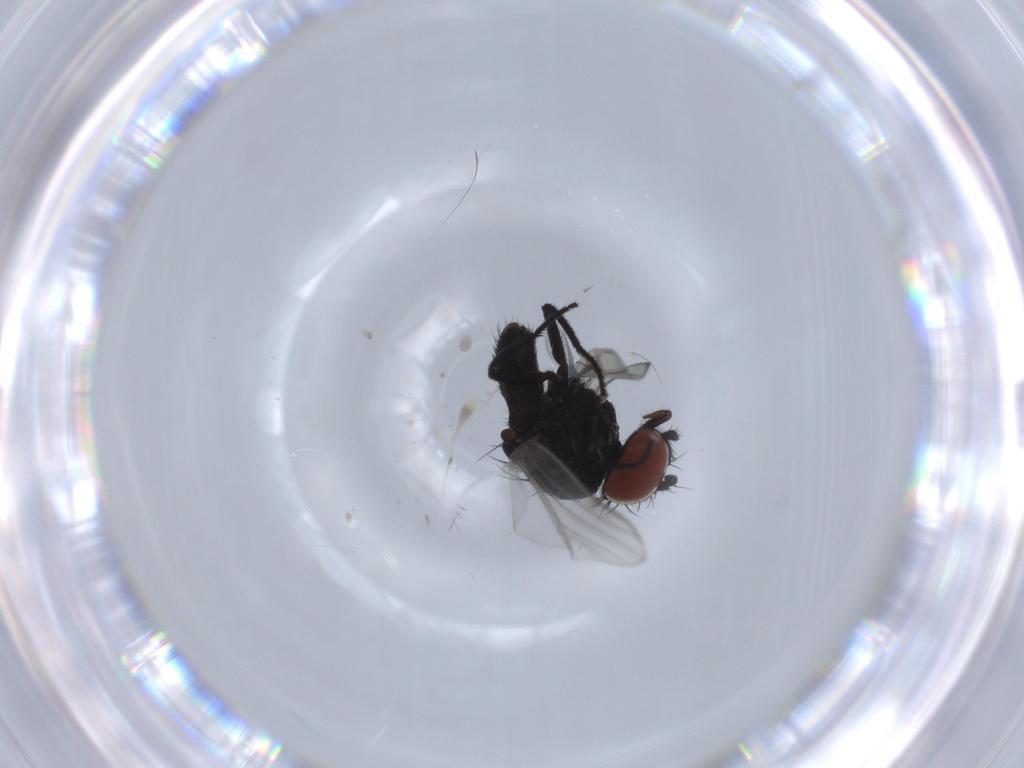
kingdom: Animalia
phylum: Arthropoda
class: Insecta
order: Diptera
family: Milichiidae
